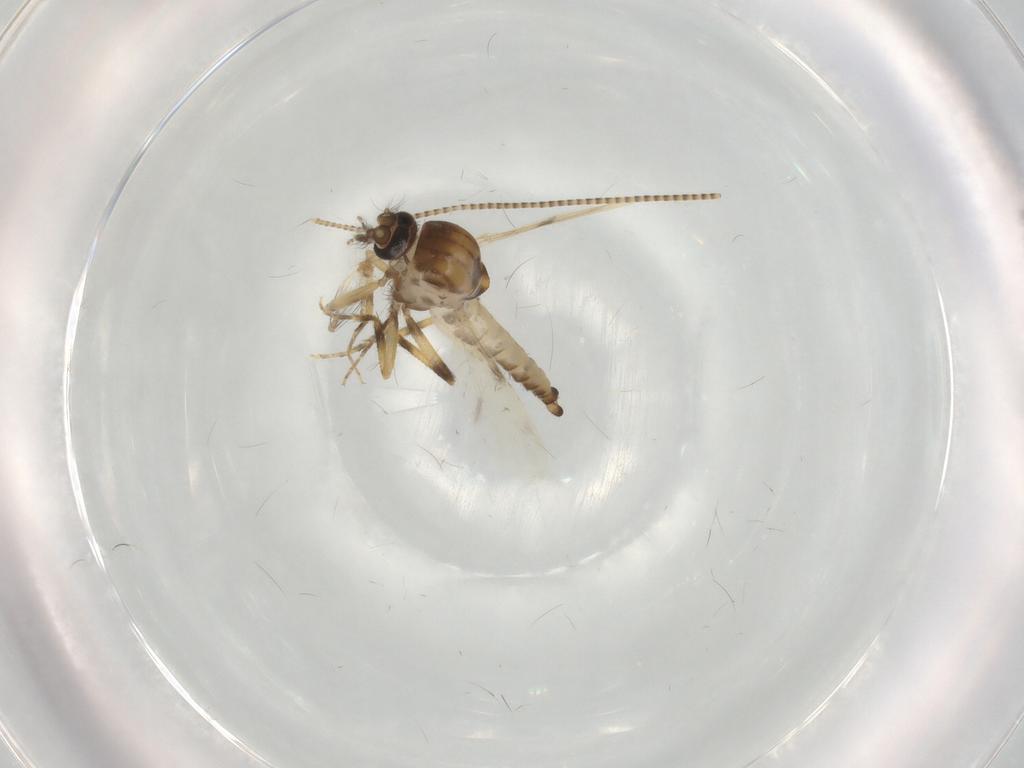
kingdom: Animalia
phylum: Arthropoda
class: Insecta
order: Diptera
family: Ceratopogonidae
